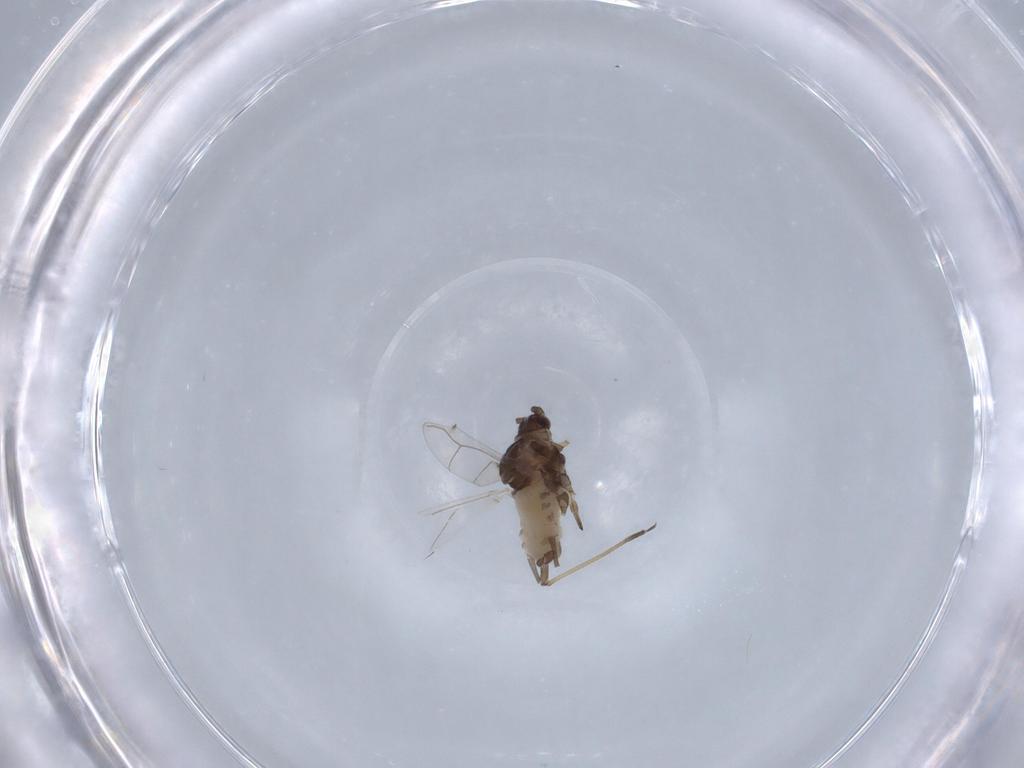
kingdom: Animalia
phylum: Arthropoda
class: Insecta
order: Hemiptera
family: Aphididae
